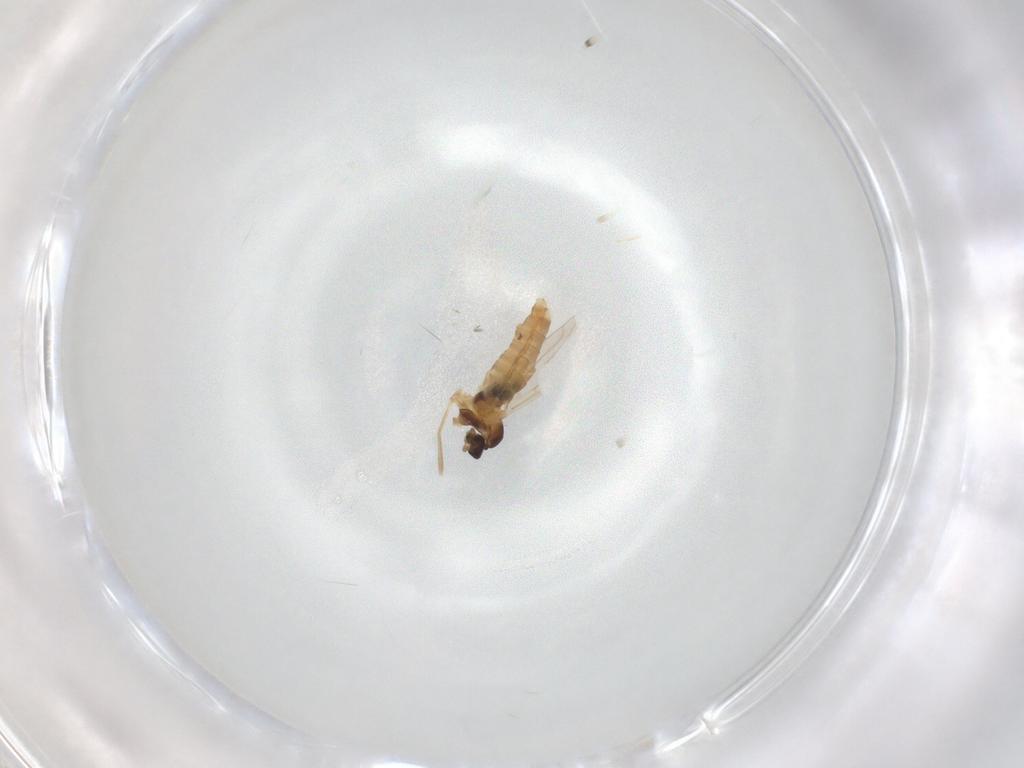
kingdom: Animalia
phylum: Arthropoda
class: Insecta
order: Diptera
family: Cecidomyiidae
